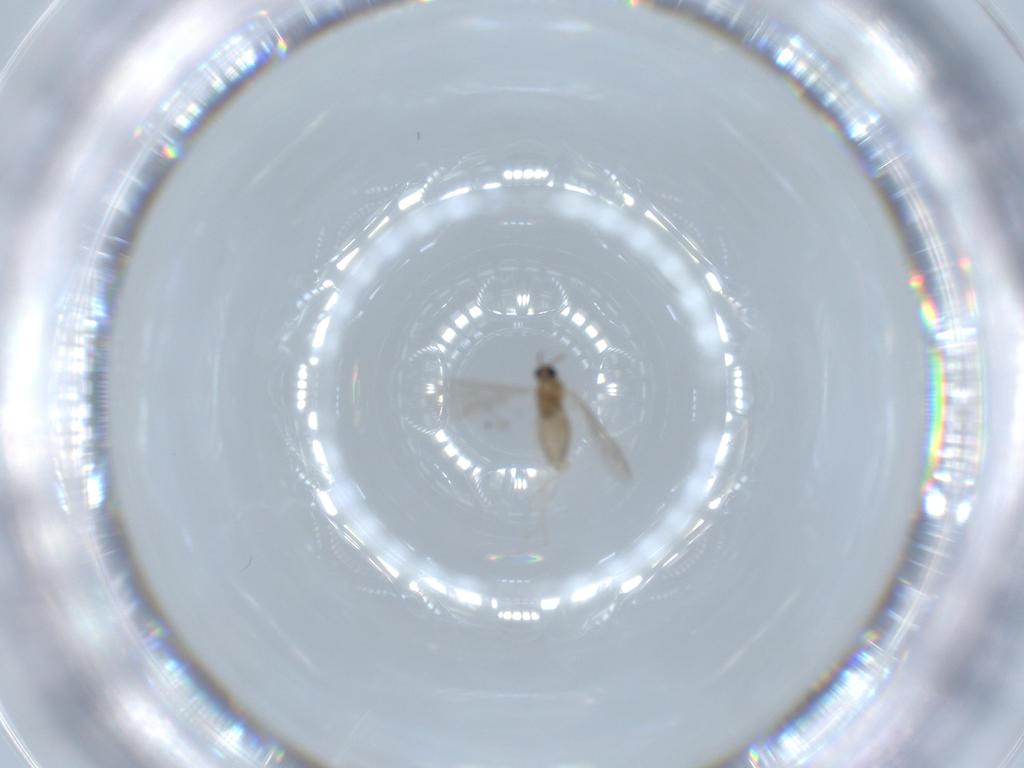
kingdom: Animalia
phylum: Arthropoda
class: Insecta
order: Diptera
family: Cecidomyiidae
